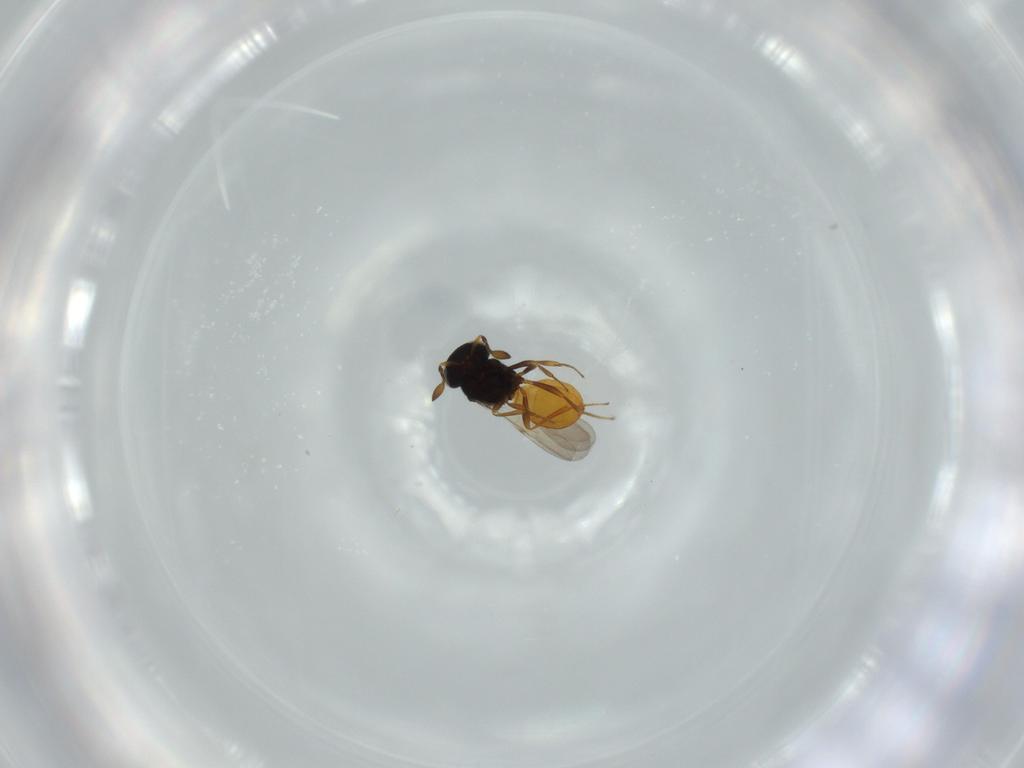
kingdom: Animalia
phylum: Arthropoda
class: Insecta
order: Hymenoptera
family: Scelionidae
